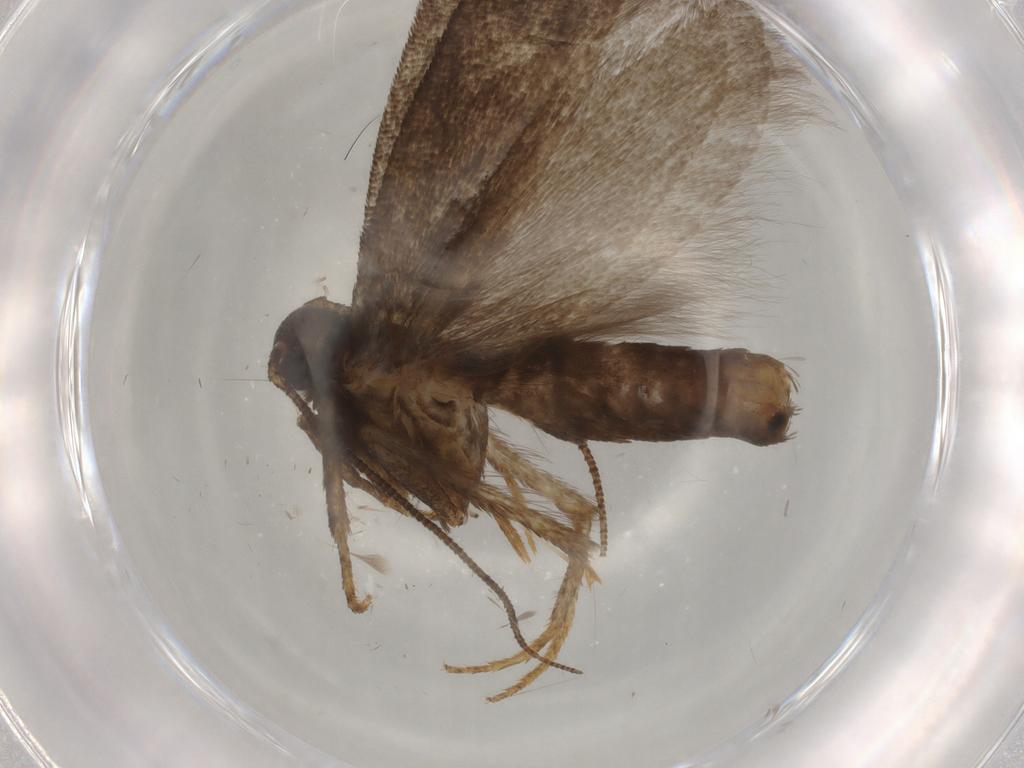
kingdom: Animalia
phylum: Arthropoda
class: Insecta
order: Lepidoptera
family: Gelechiidae
